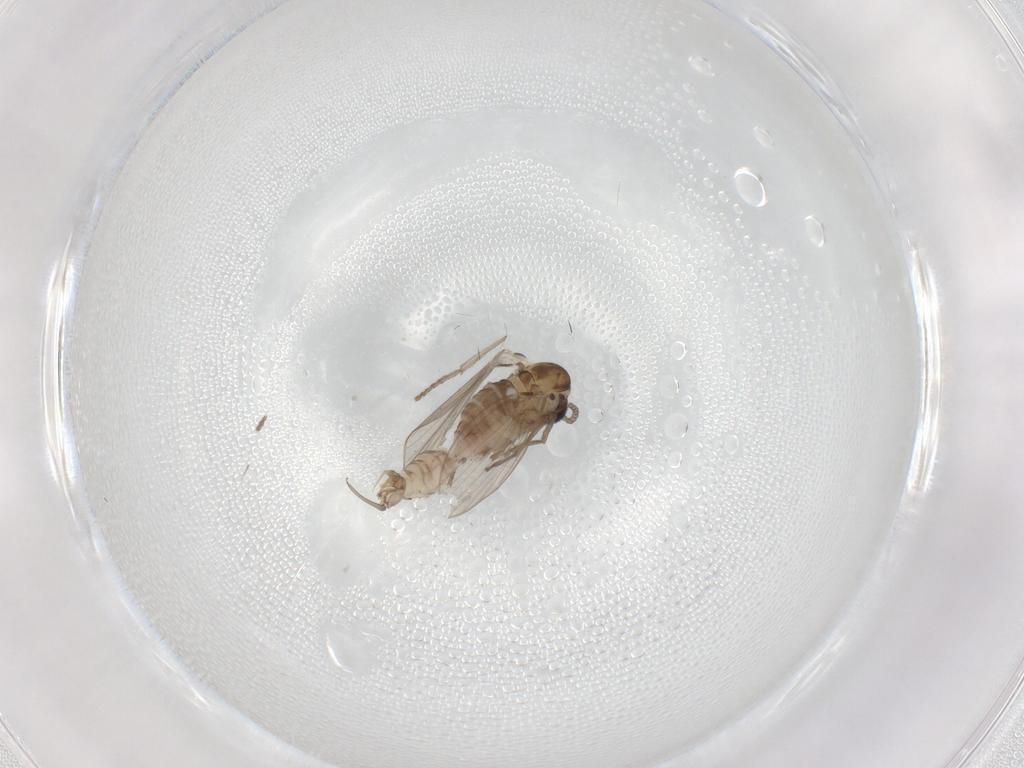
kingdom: Animalia
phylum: Arthropoda
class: Insecta
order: Diptera
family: Psychodidae
